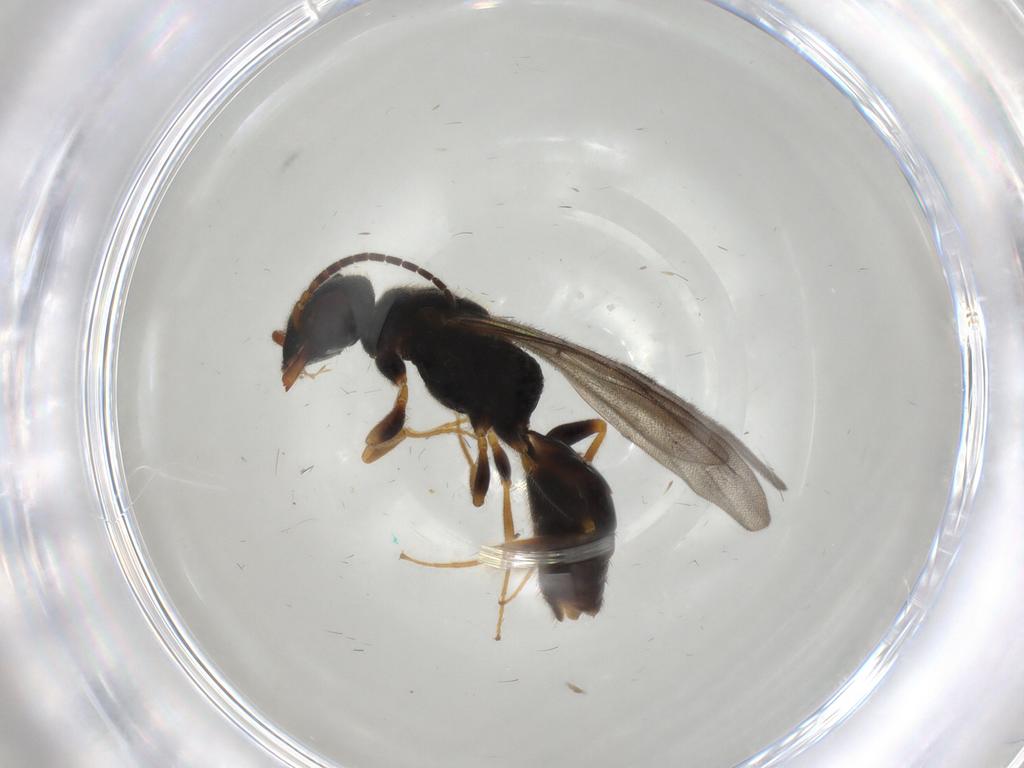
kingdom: Animalia
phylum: Arthropoda
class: Insecta
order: Hymenoptera
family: Bethylidae
